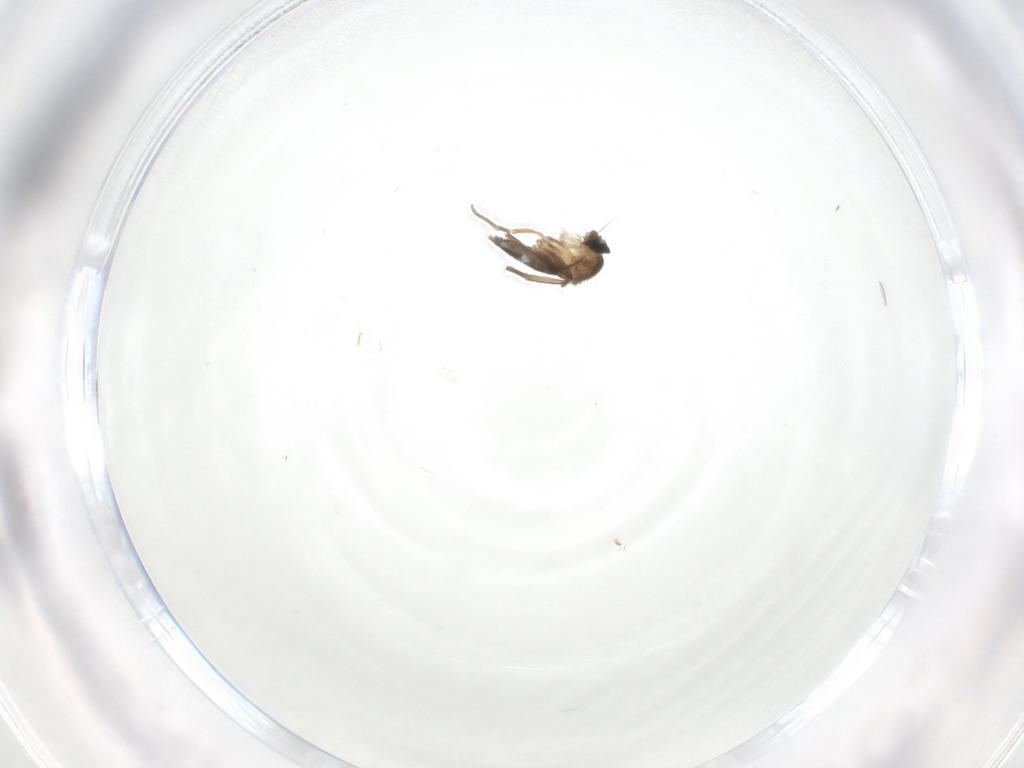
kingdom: Animalia
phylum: Arthropoda
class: Insecta
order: Diptera
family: Phoridae
